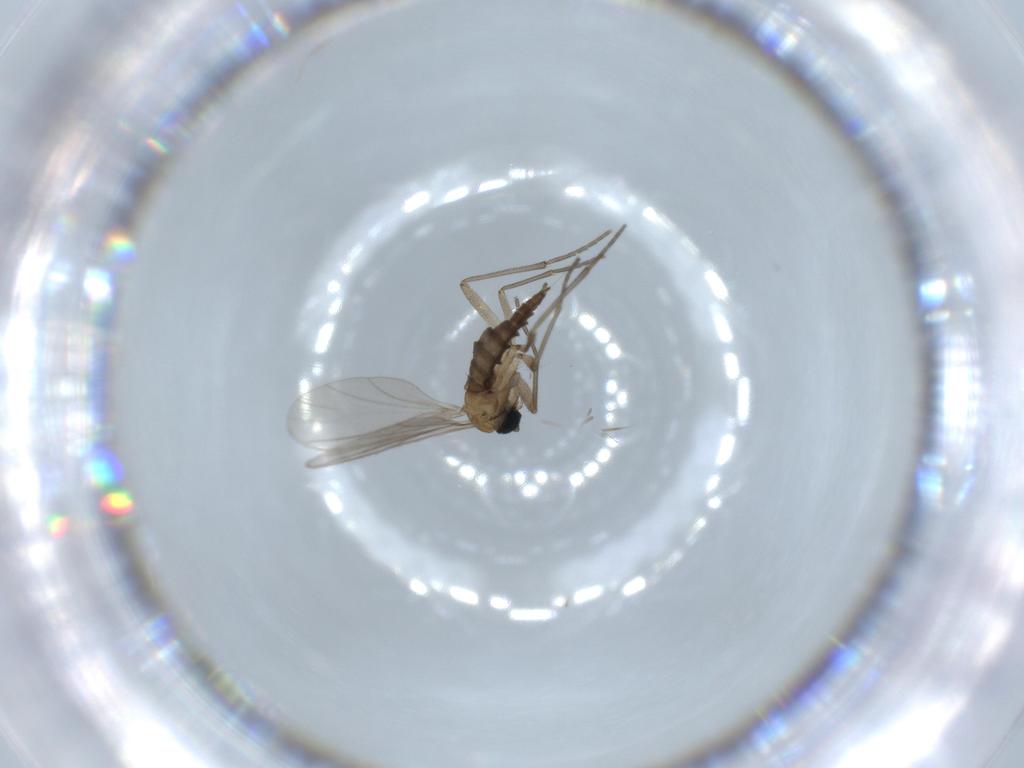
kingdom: Animalia
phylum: Arthropoda
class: Insecta
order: Diptera
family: Sciaridae
